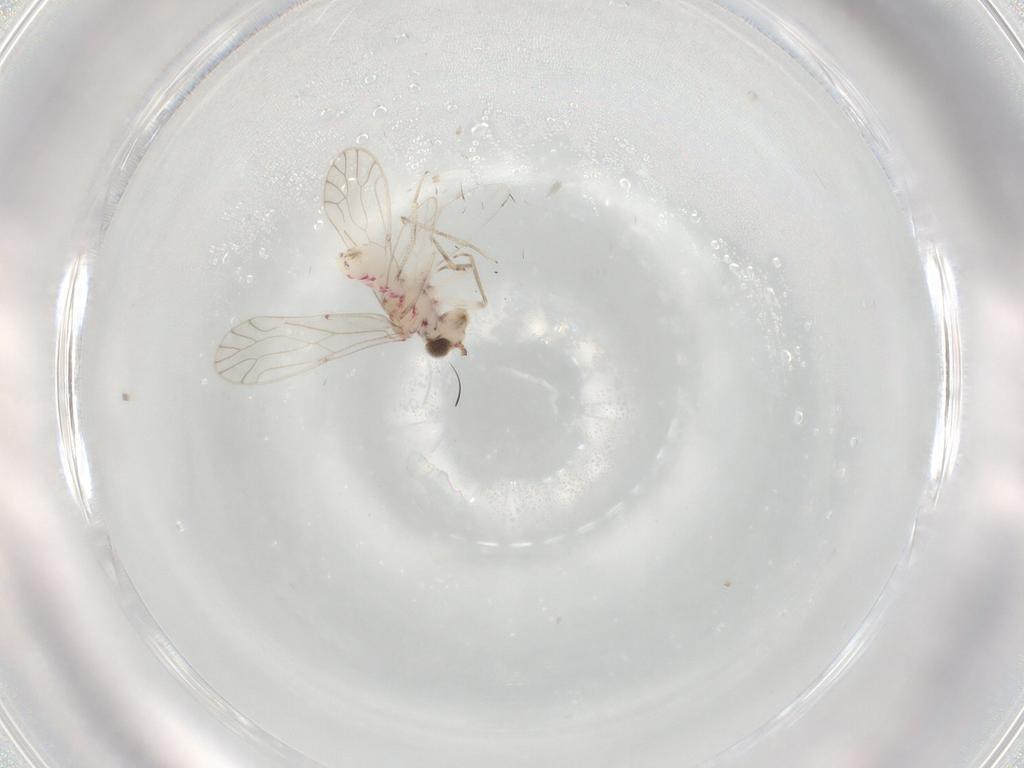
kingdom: Animalia
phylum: Arthropoda
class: Insecta
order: Psocodea
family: Caeciliusidae
